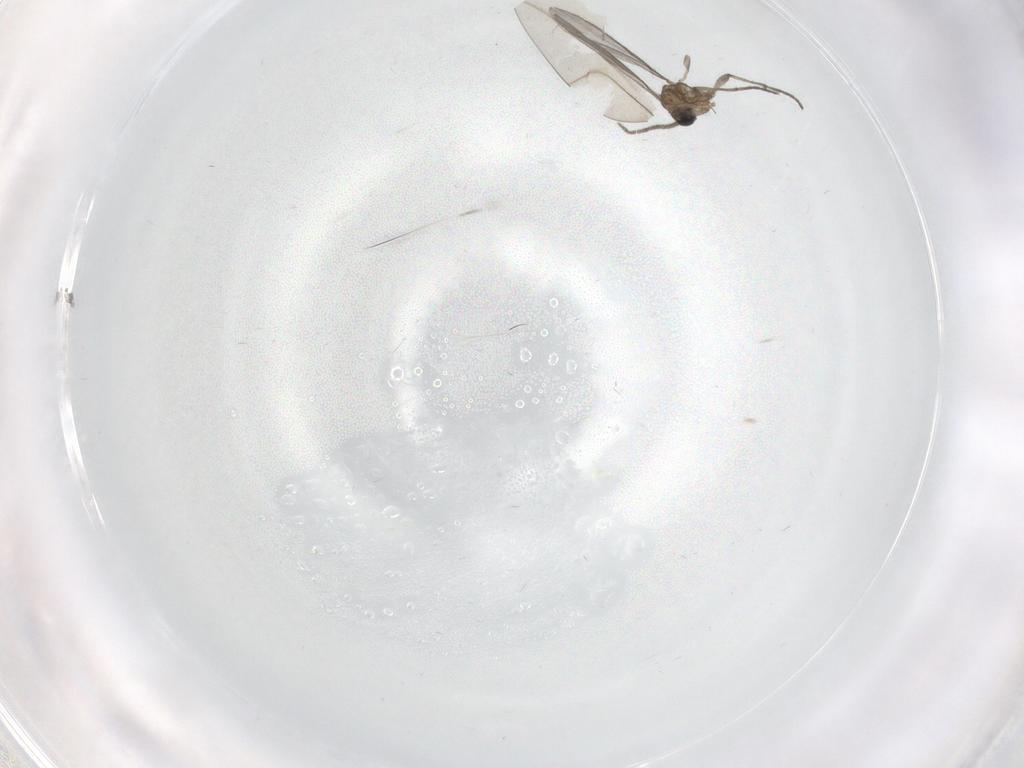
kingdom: Animalia
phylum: Arthropoda
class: Insecta
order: Diptera
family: Sciaridae
